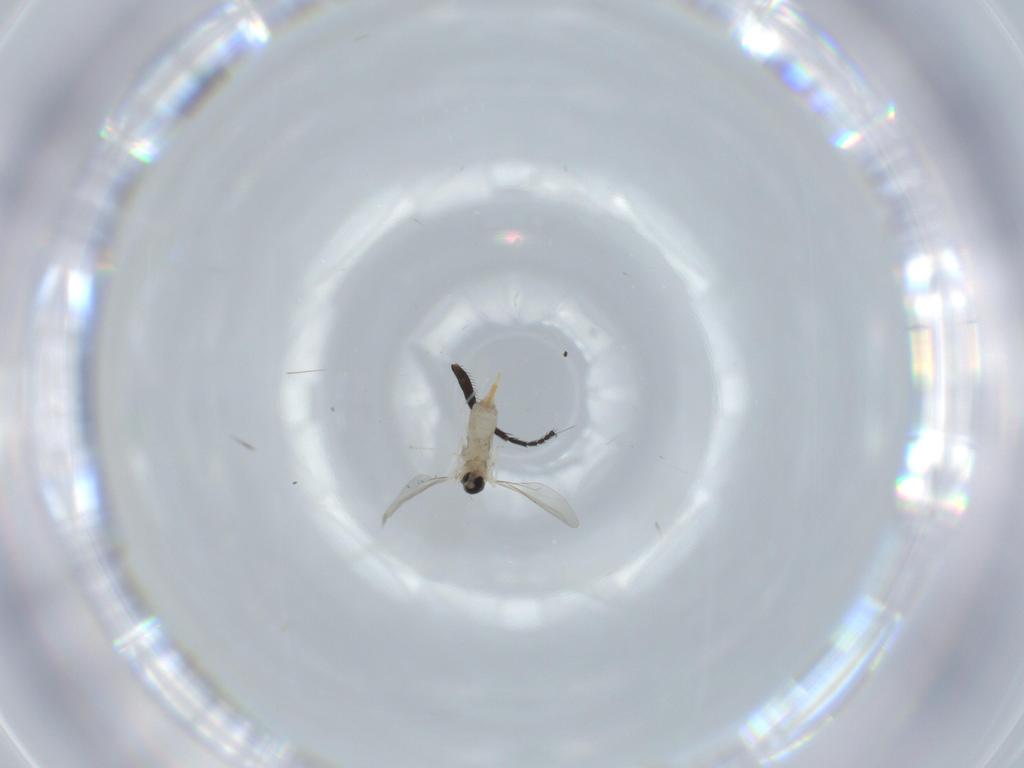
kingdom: Animalia
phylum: Arthropoda
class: Insecta
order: Diptera
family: Cecidomyiidae
